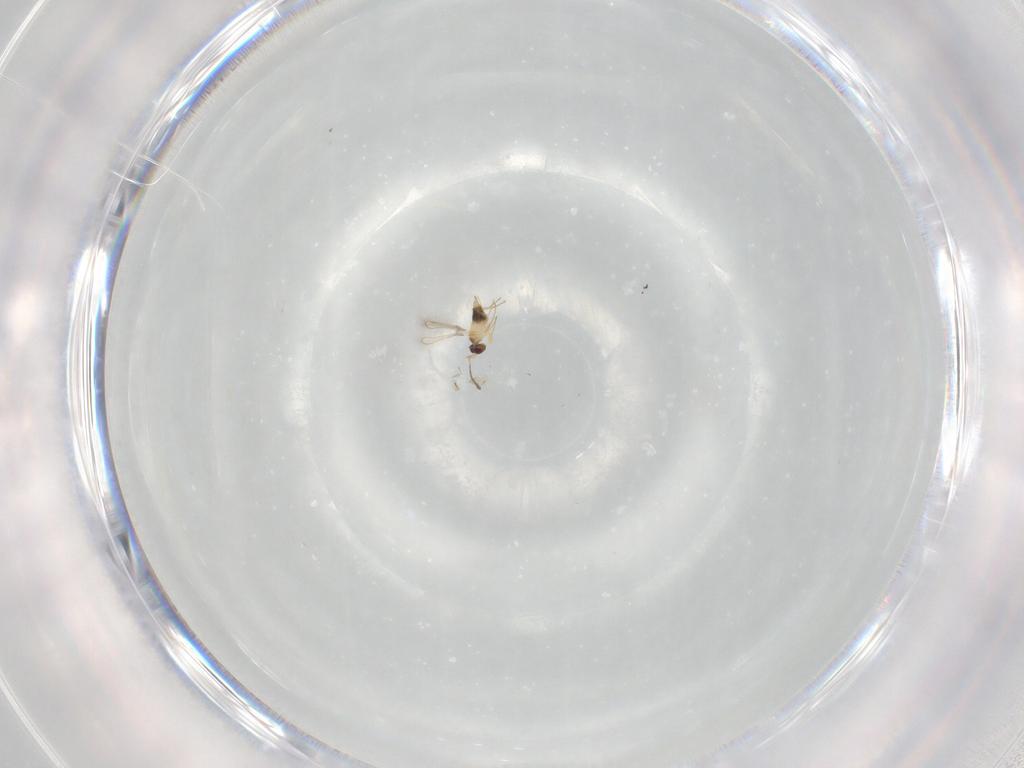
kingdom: Animalia
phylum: Arthropoda
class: Insecta
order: Hymenoptera
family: Mymaridae
